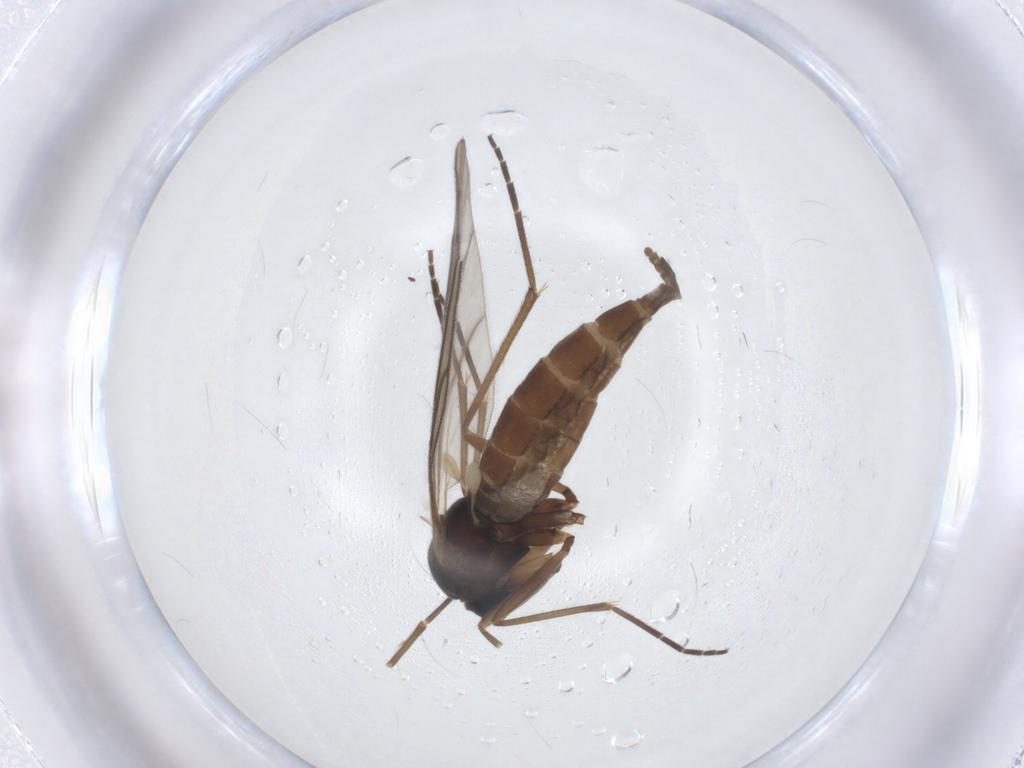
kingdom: Animalia
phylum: Arthropoda
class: Insecta
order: Diptera
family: Sciaridae
